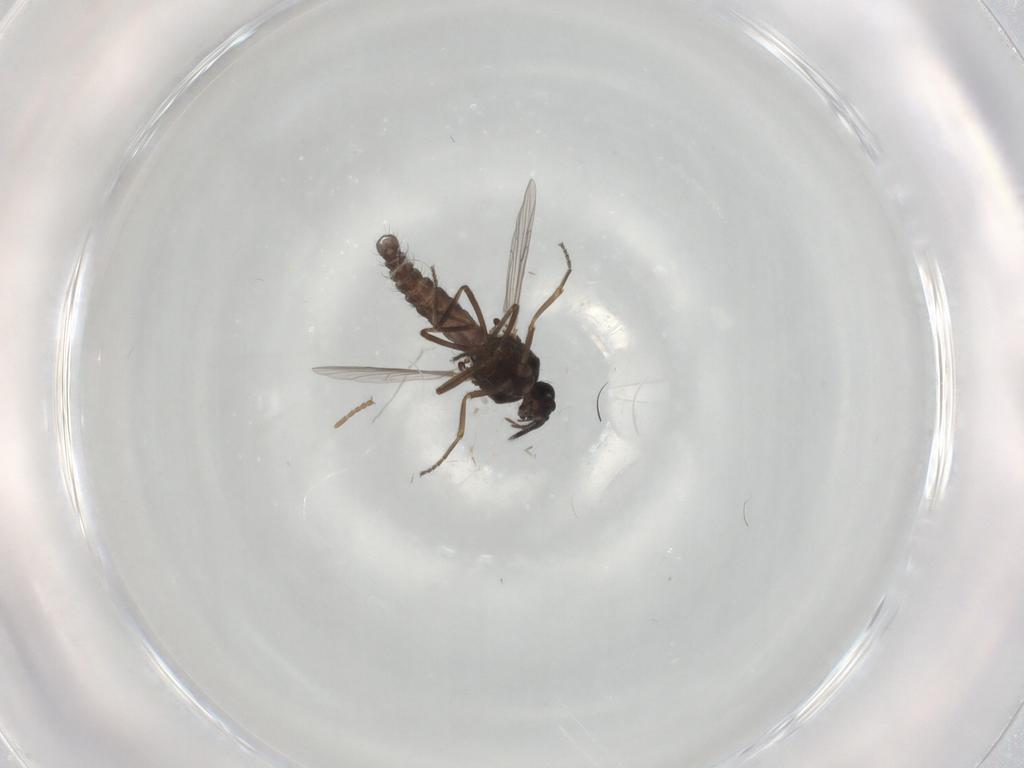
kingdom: Animalia
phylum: Arthropoda
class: Insecta
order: Diptera
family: Ceratopogonidae
